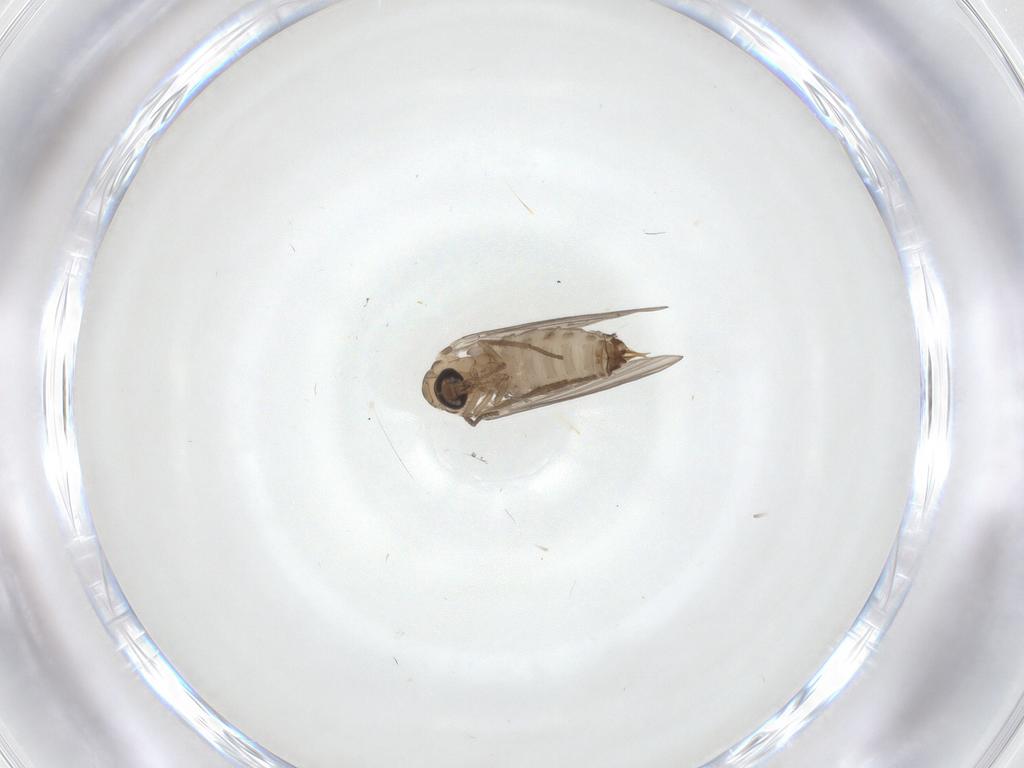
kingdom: Animalia
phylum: Arthropoda
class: Insecta
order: Diptera
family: Psychodidae
